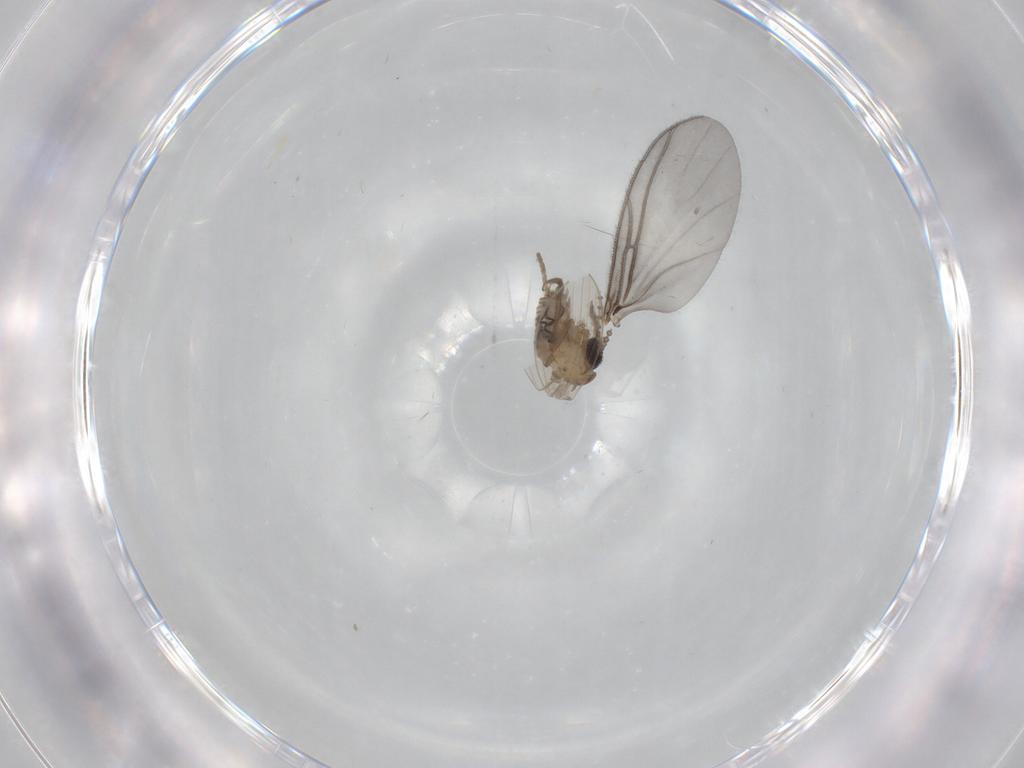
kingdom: Animalia
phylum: Arthropoda
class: Insecta
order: Diptera
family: Psychodidae
